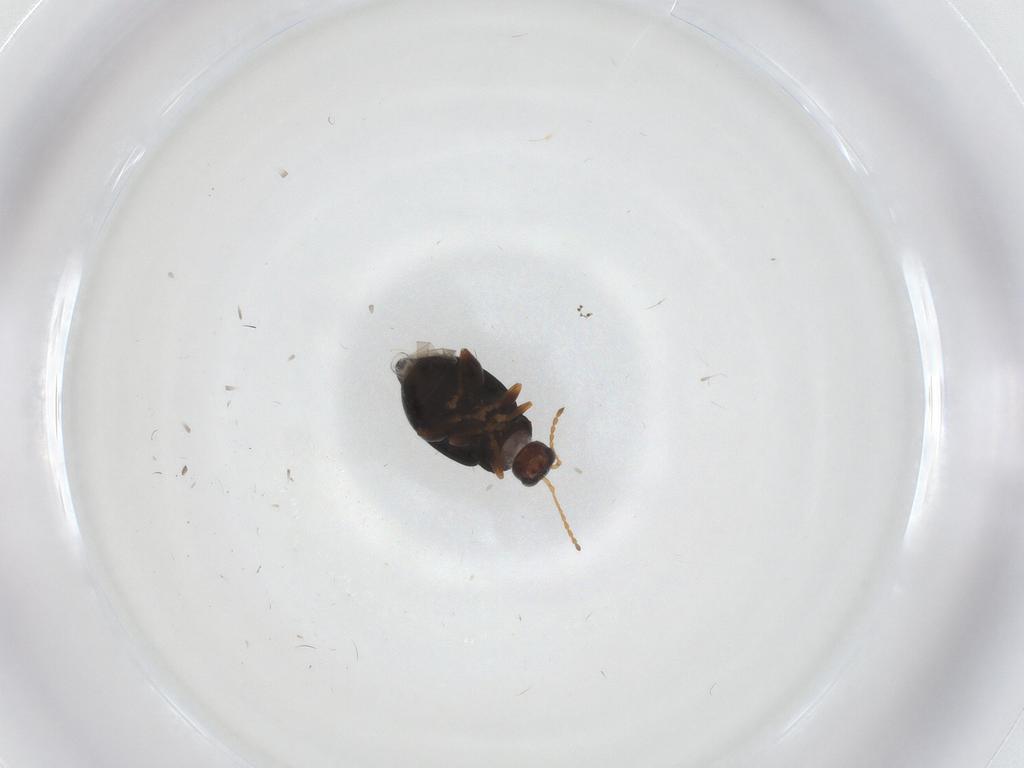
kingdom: Animalia
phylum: Arthropoda
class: Insecta
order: Coleoptera
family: Chrysomelidae
